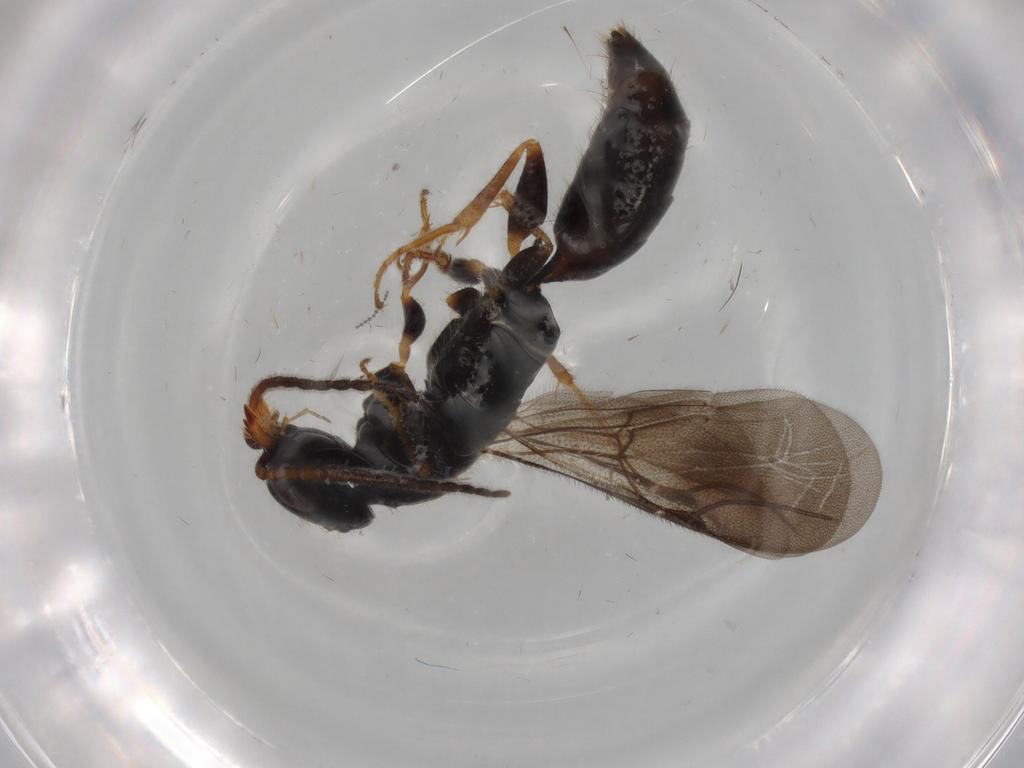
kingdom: Animalia
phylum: Arthropoda
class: Insecta
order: Hymenoptera
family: Bethylidae
